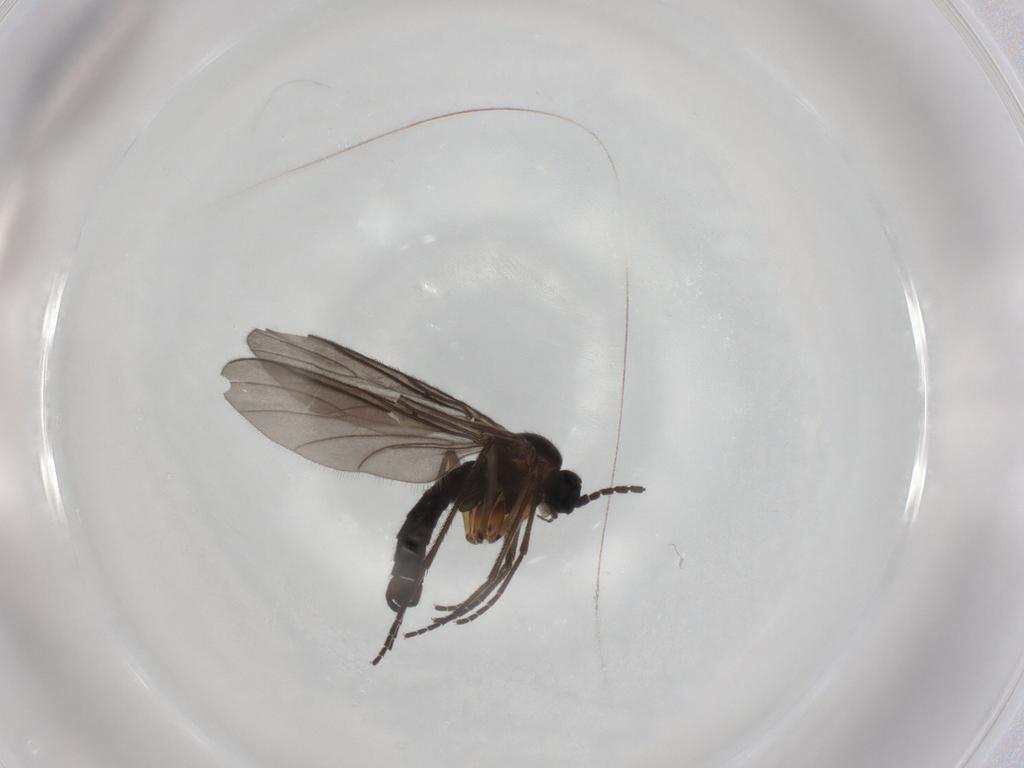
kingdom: Animalia
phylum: Arthropoda
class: Insecta
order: Diptera
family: Sciaridae
